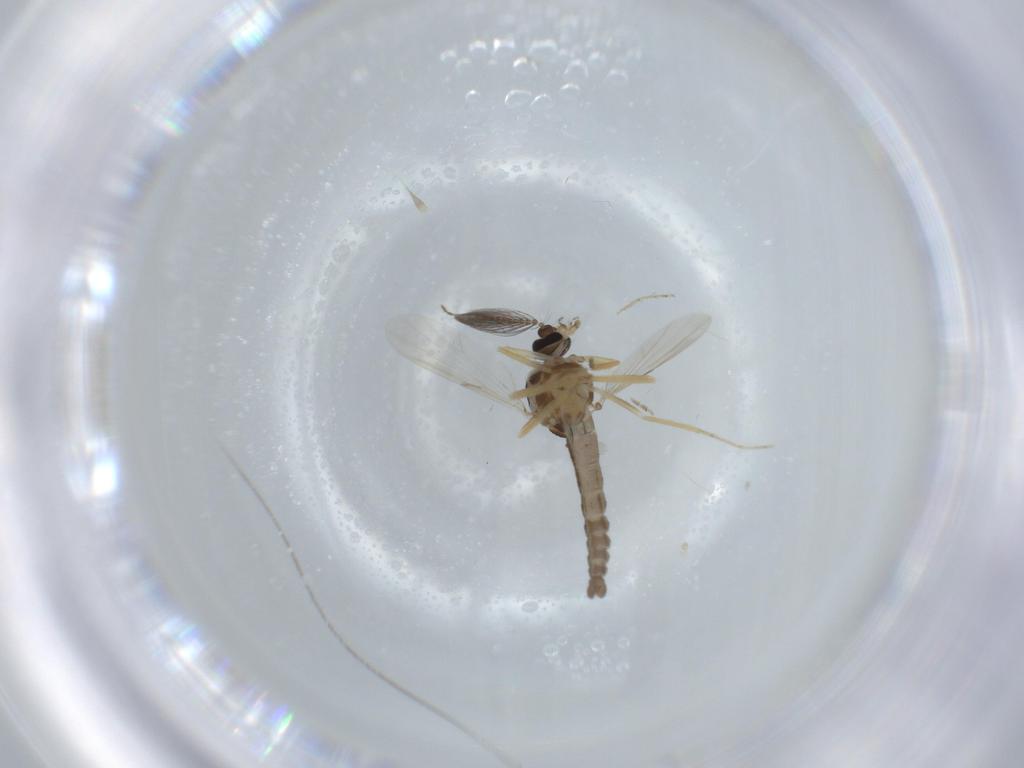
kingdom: Animalia
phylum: Arthropoda
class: Insecta
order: Diptera
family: Ceratopogonidae
